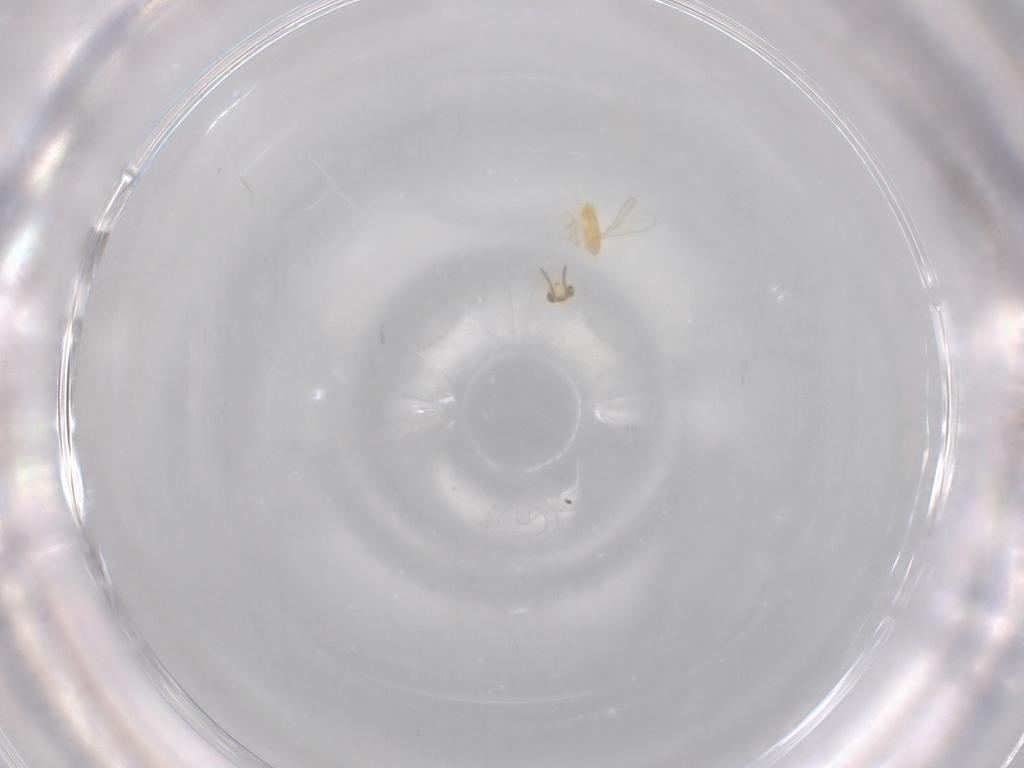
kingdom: Animalia
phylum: Arthropoda
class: Insecta
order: Hymenoptera
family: Aphelinidae
